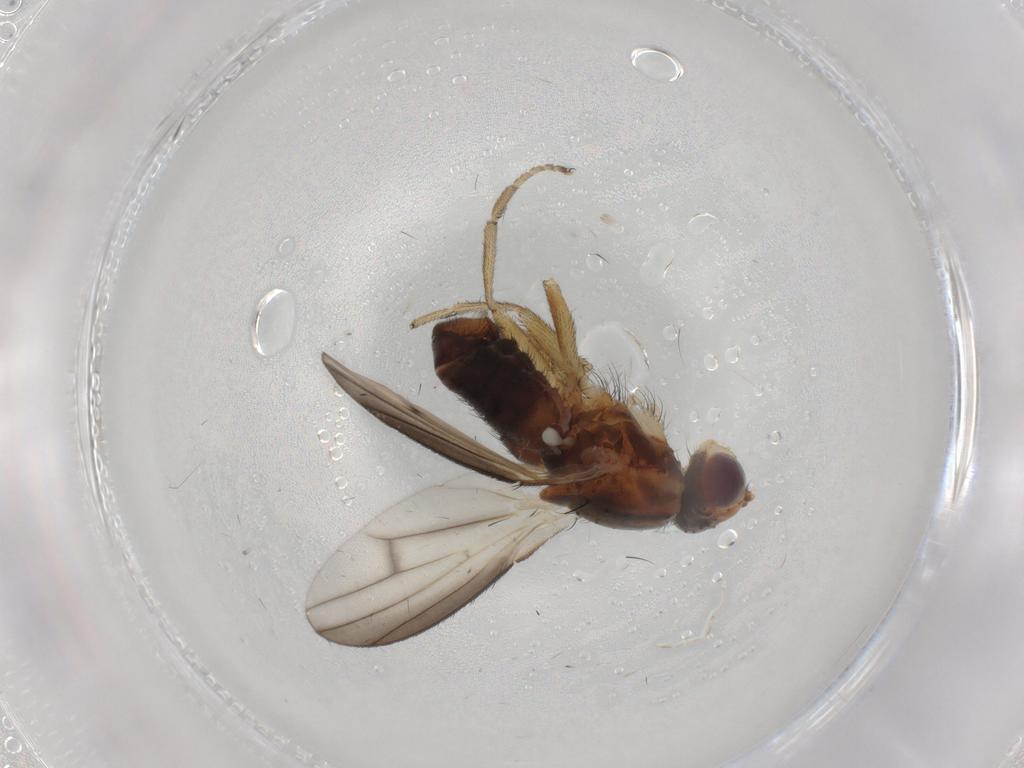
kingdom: Animalia
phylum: Arthropoda
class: Insecta
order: Diptera
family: Heleomyzidae
